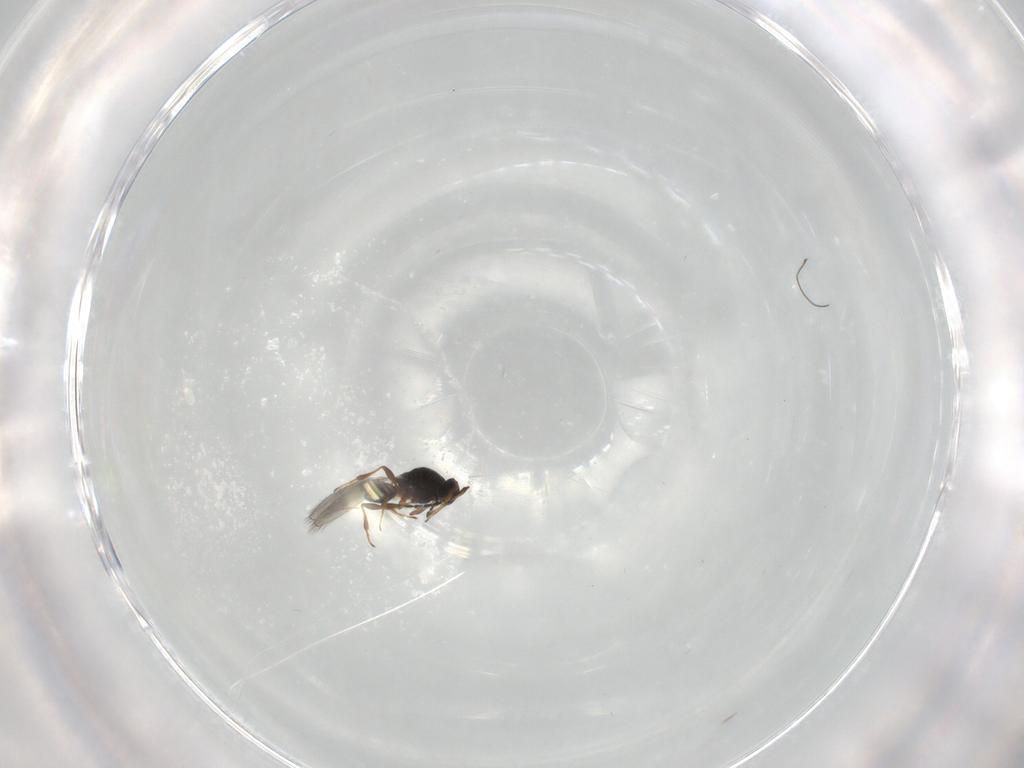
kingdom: Animalia
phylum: Arthropoda
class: Insecta
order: Hymenoptera
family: Platygastridae
